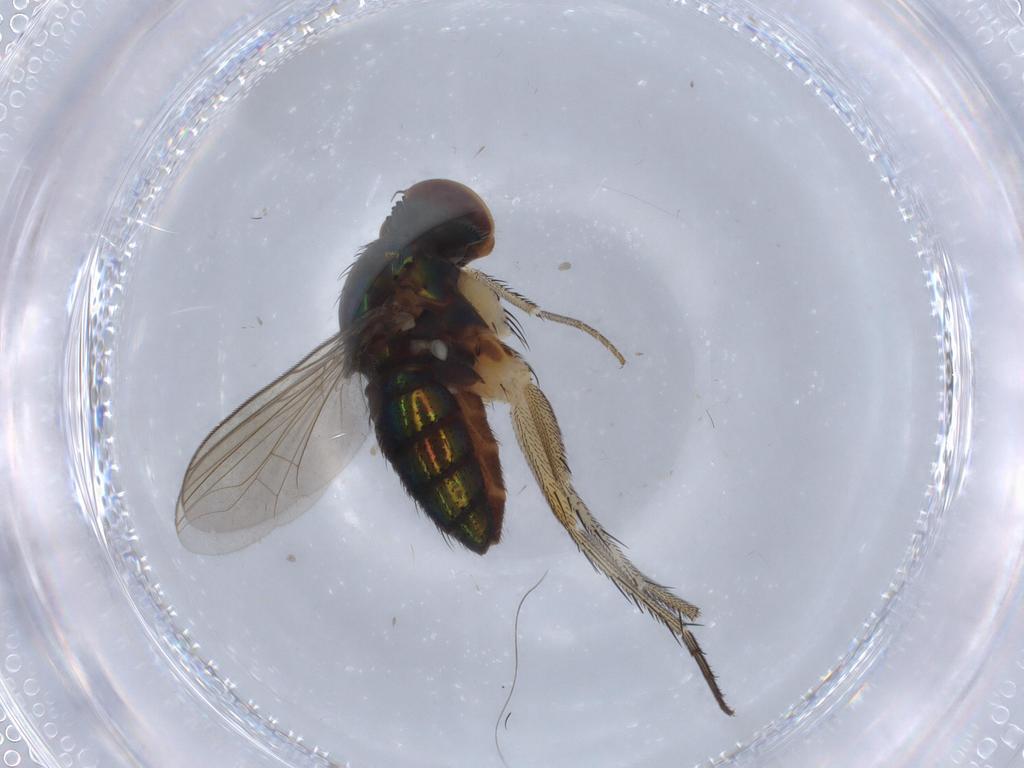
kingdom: Animalia
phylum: Arthropoda
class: Insecta
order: Diptera
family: Dolichopodidae
